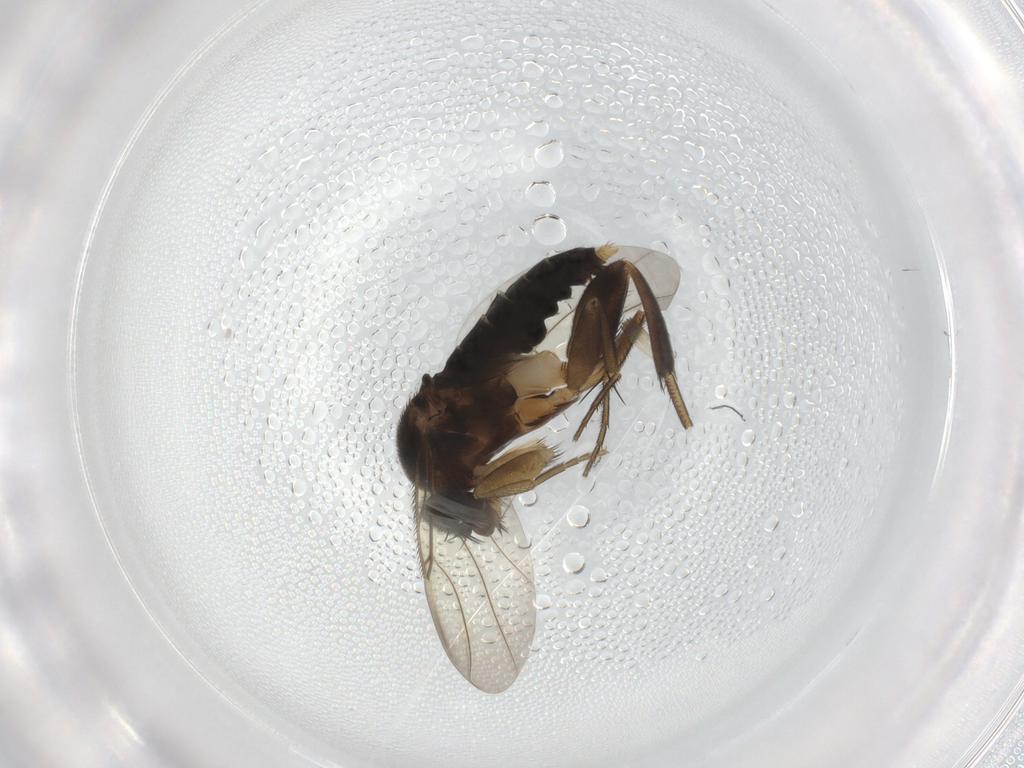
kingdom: Animalia
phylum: Arthropoda
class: Insecta
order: Diptera
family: Phoridae
